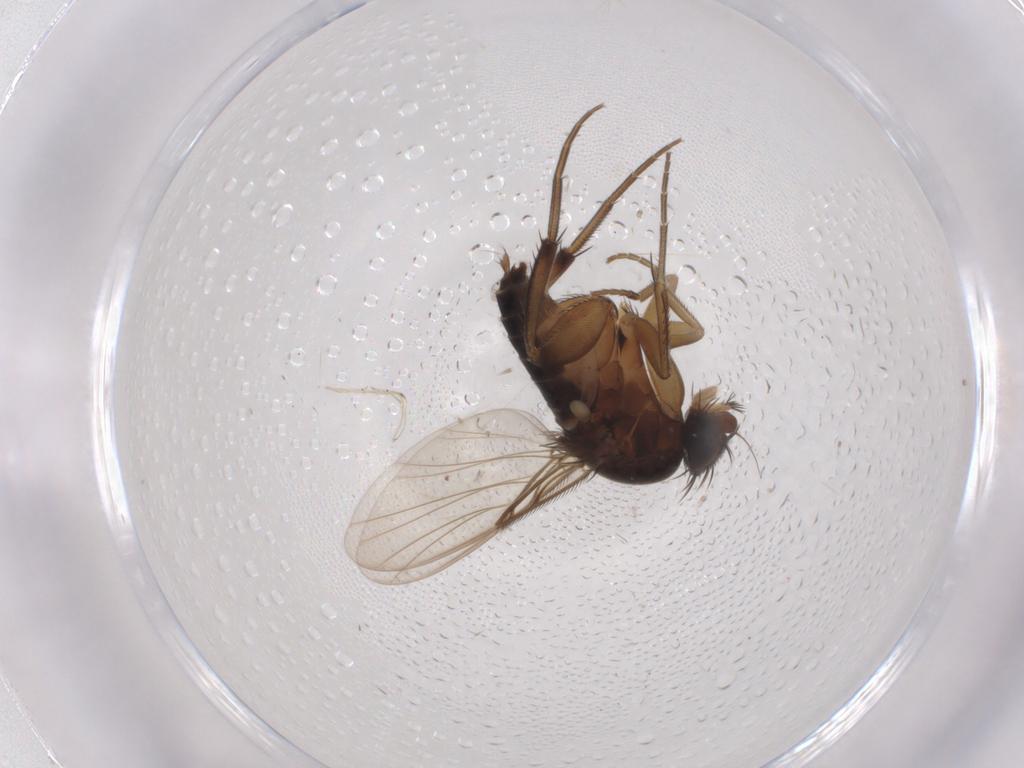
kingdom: Animalia
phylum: Arthropoda
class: Insecta
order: Diptera
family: Phoridae
